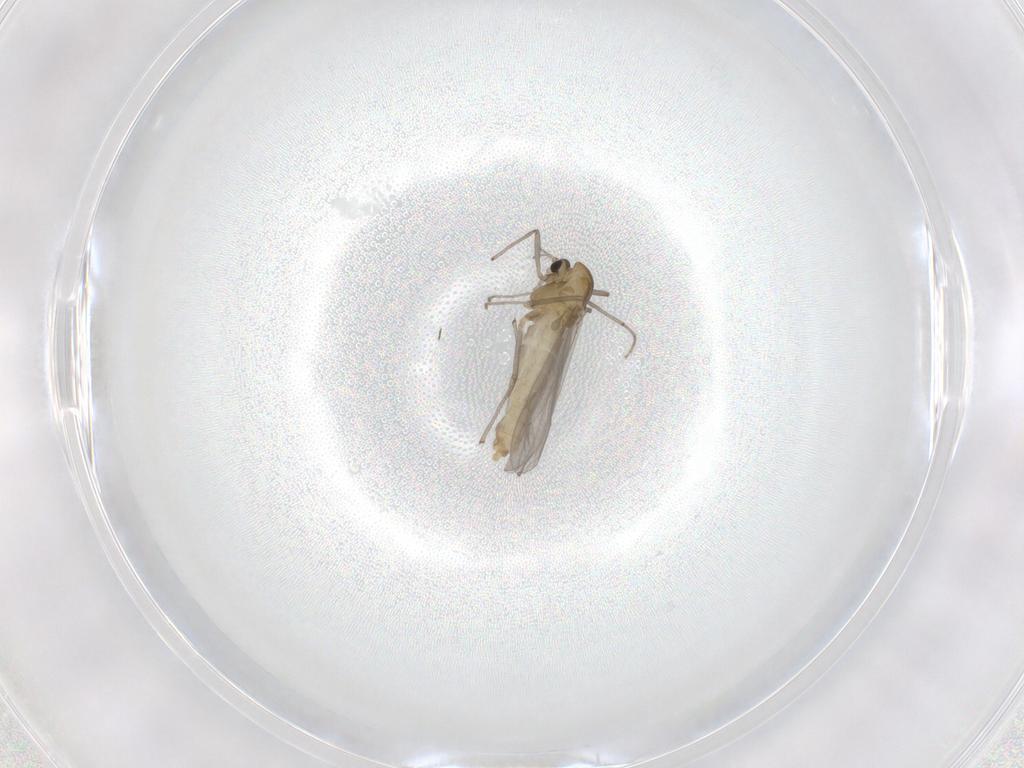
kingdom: Animalia
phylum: Arthropoda
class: Insecta
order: Diptera
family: Chironomidae
